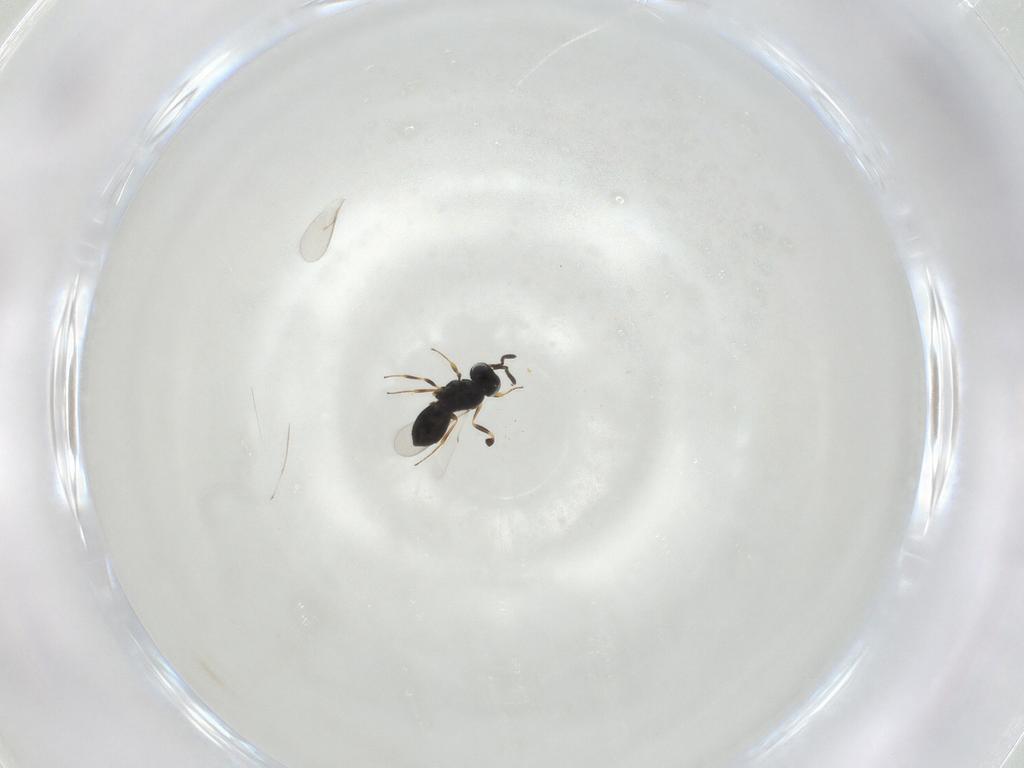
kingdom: Animalia
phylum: Arthropoda
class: Insecta
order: Hymenoptera
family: Scelionidae
